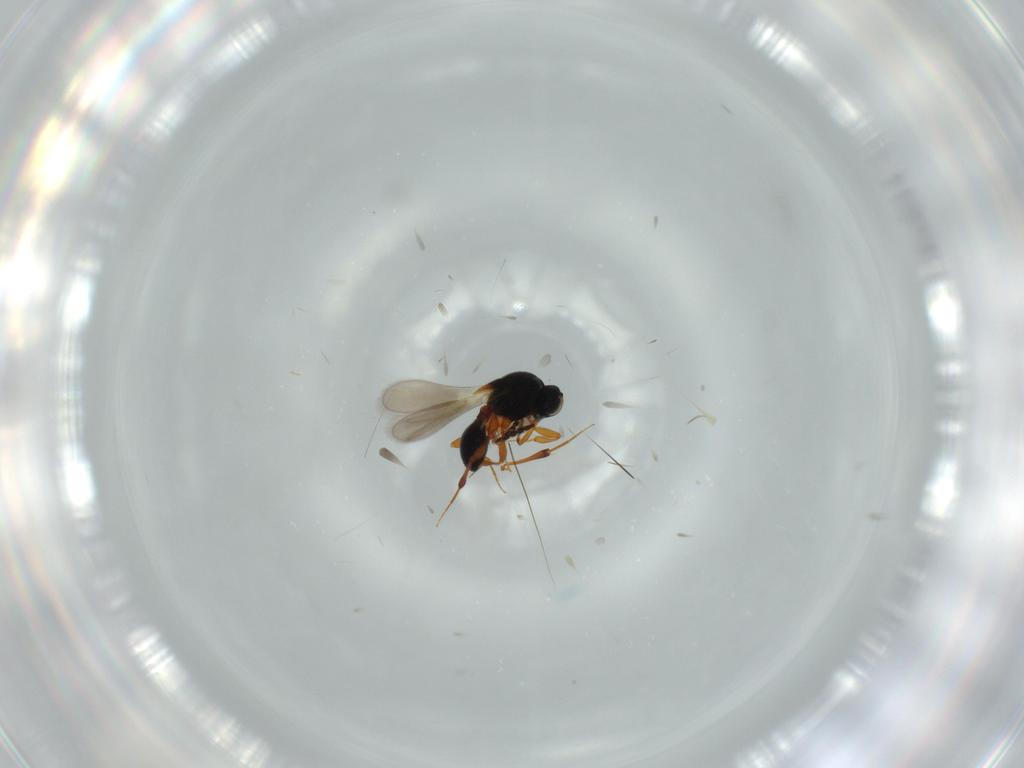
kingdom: Animalia
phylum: Arthropoda
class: Insecta
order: Hymenoptera
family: Platygastridae
